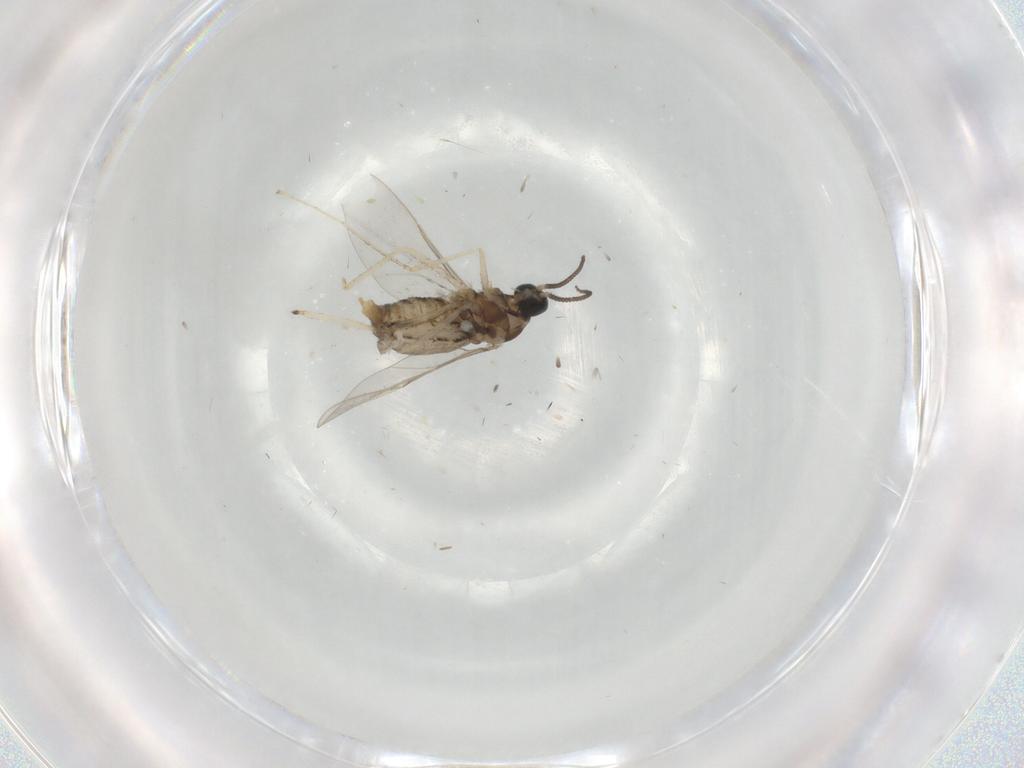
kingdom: Animalia
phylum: Arthropoda
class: Insecta
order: Diptera
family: Cecidomyiidae
